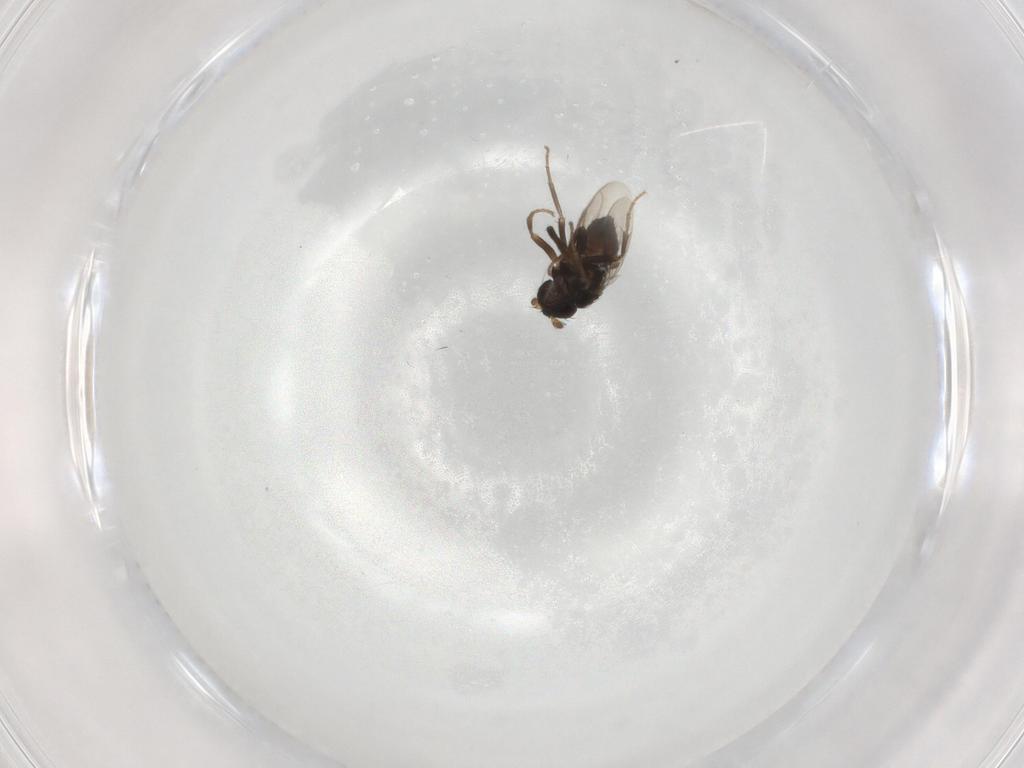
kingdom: Animalia
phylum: Arthropoda
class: Insecta
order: Diptera
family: Sphaeroceridae
